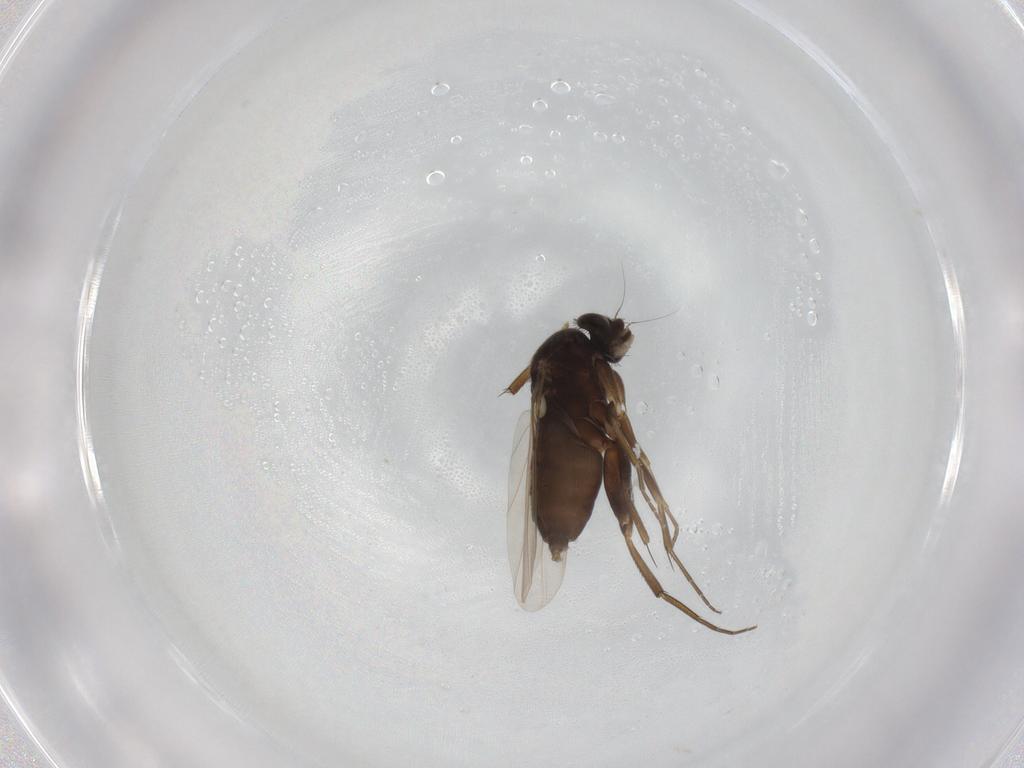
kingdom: Animalia
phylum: Arthropoda
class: Insecta
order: Diptera
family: Phoridae
